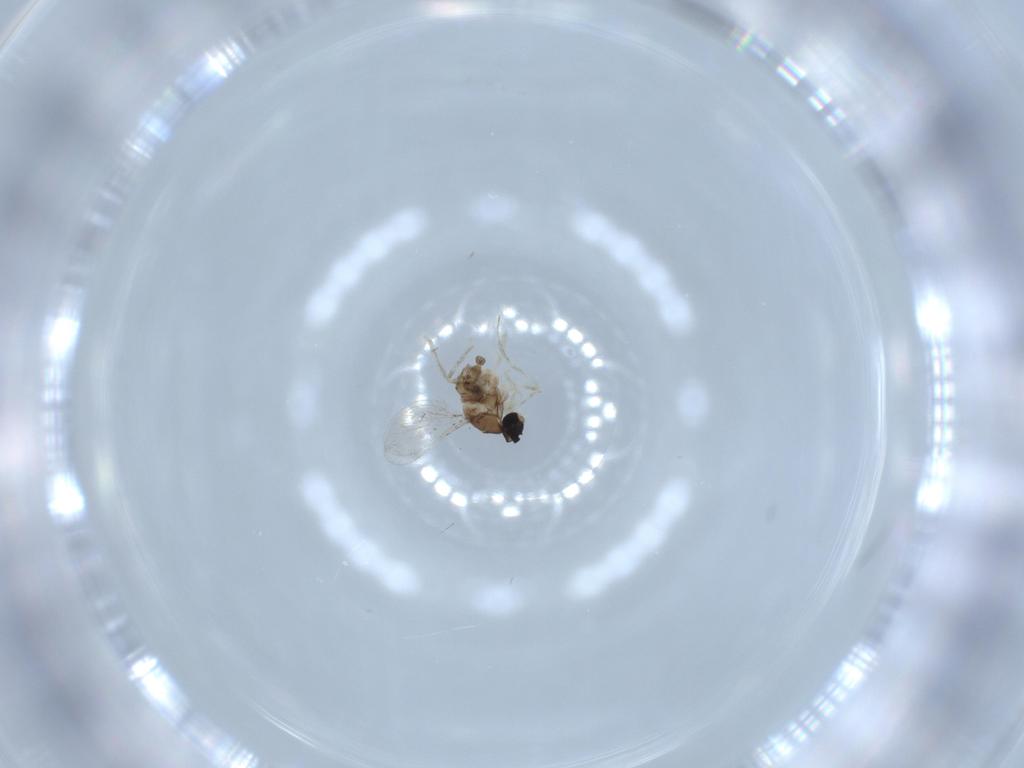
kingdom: Animalia
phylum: Arthropoda
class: Insecta
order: Diptera
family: Cecidomyiidae
